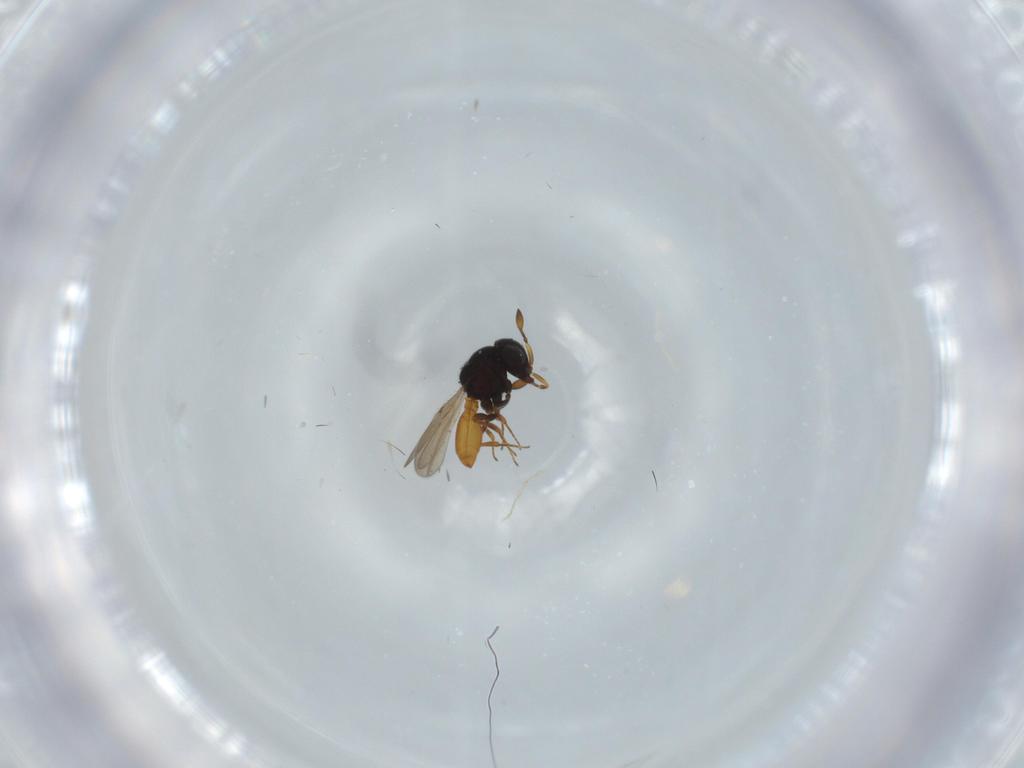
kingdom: Animalia
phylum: Arthropoda
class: Insecta
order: Hymenoptera
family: Scelionidae
